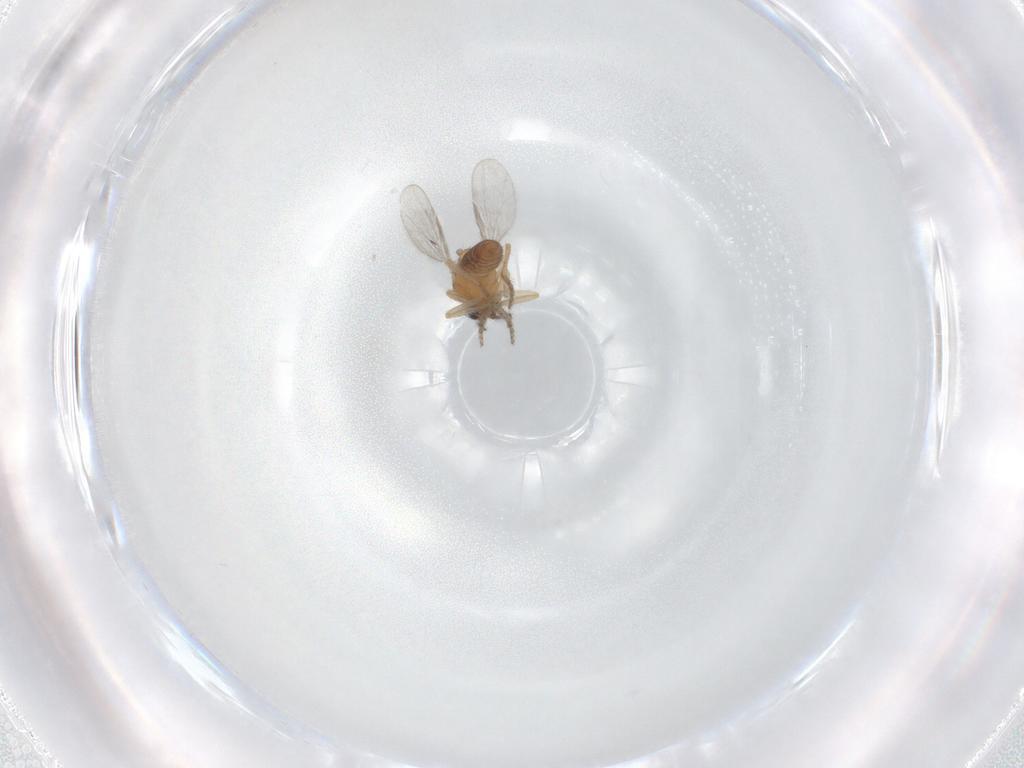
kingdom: Animalia
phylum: Arthropoda
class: Insecta
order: Diptera
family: Ceratopogonidae
